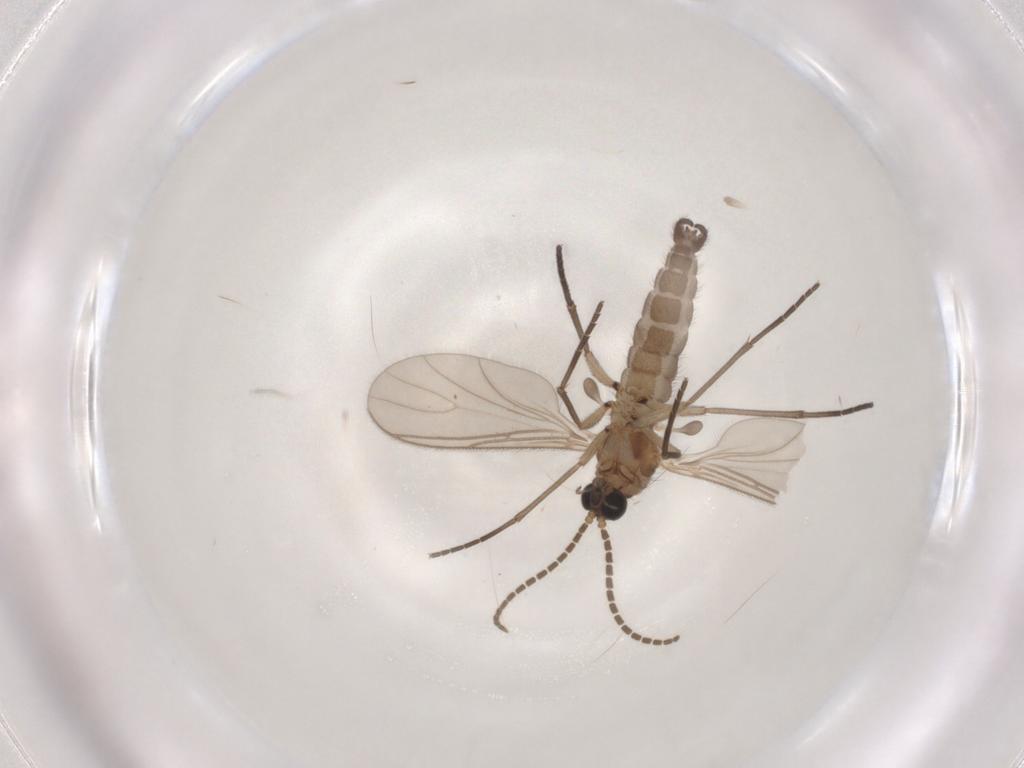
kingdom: Animalia
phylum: Arthropoda
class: Insecta
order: Diptera
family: Sciaridae
